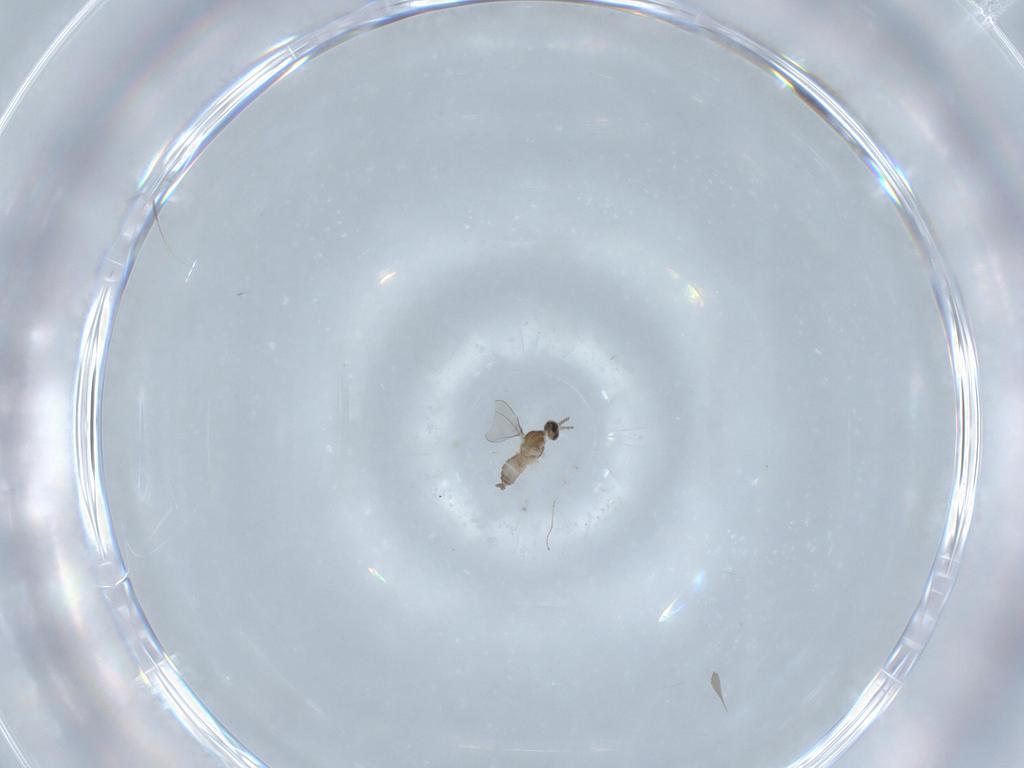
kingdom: Animalia
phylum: Arthropoda
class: Insecta
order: Diptera
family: Cecidomyiidae
